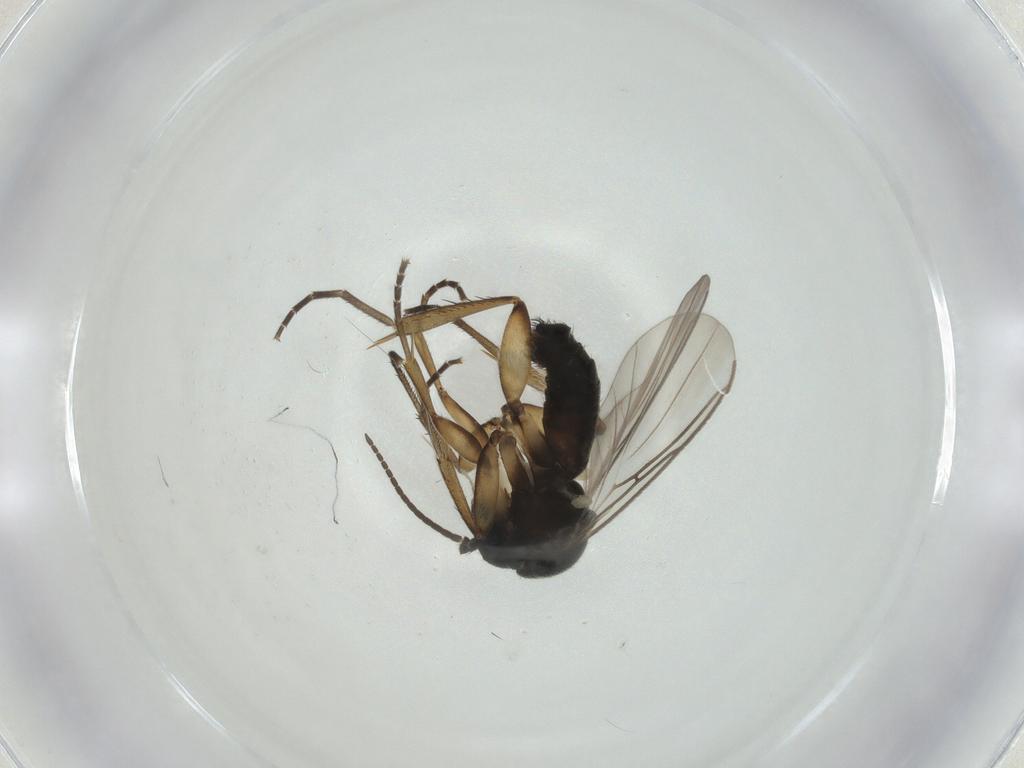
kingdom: Animalia
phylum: Arthropoda
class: Insecta
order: Diptera
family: Mycetophilidae
